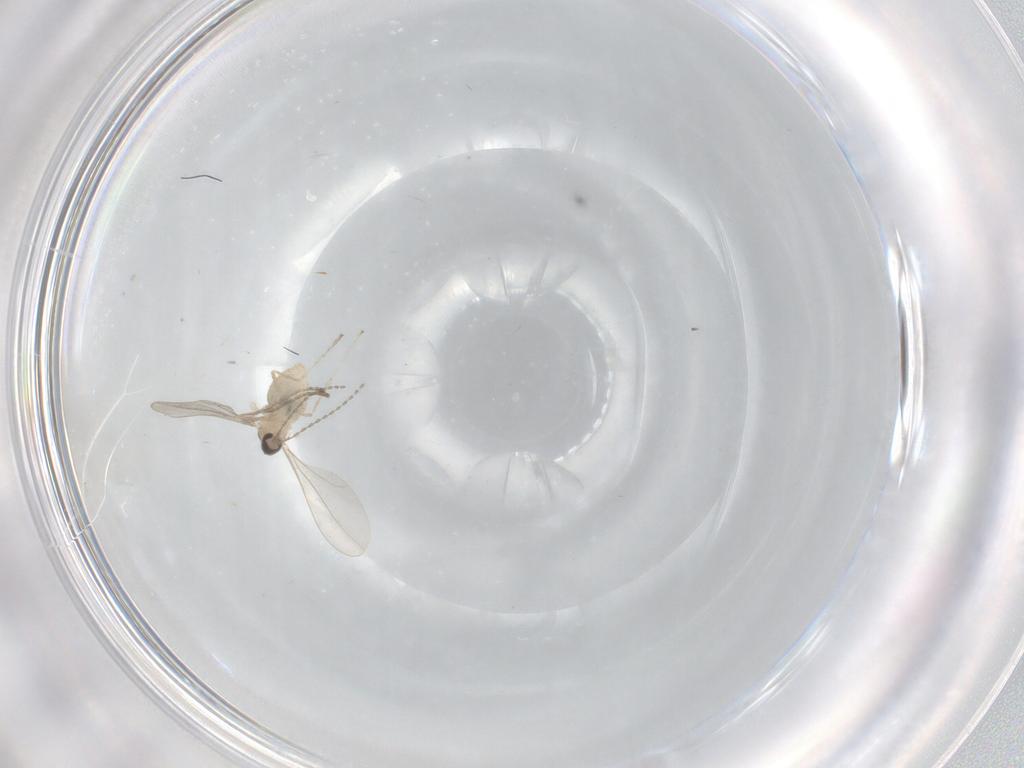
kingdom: Animalia
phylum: Arthropoda
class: Insecta
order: Diptera
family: Cecidomyiidae
